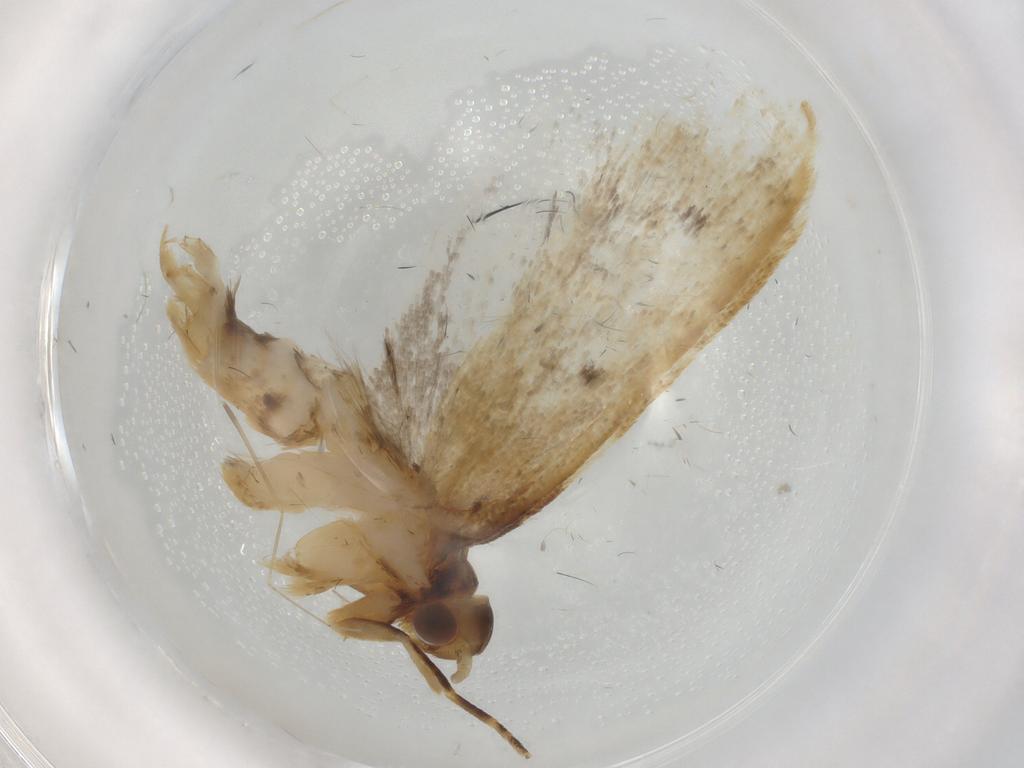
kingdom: Animalia
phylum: Arthropoda
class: Insecta
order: Lepidoptera
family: Lecithoceridae
